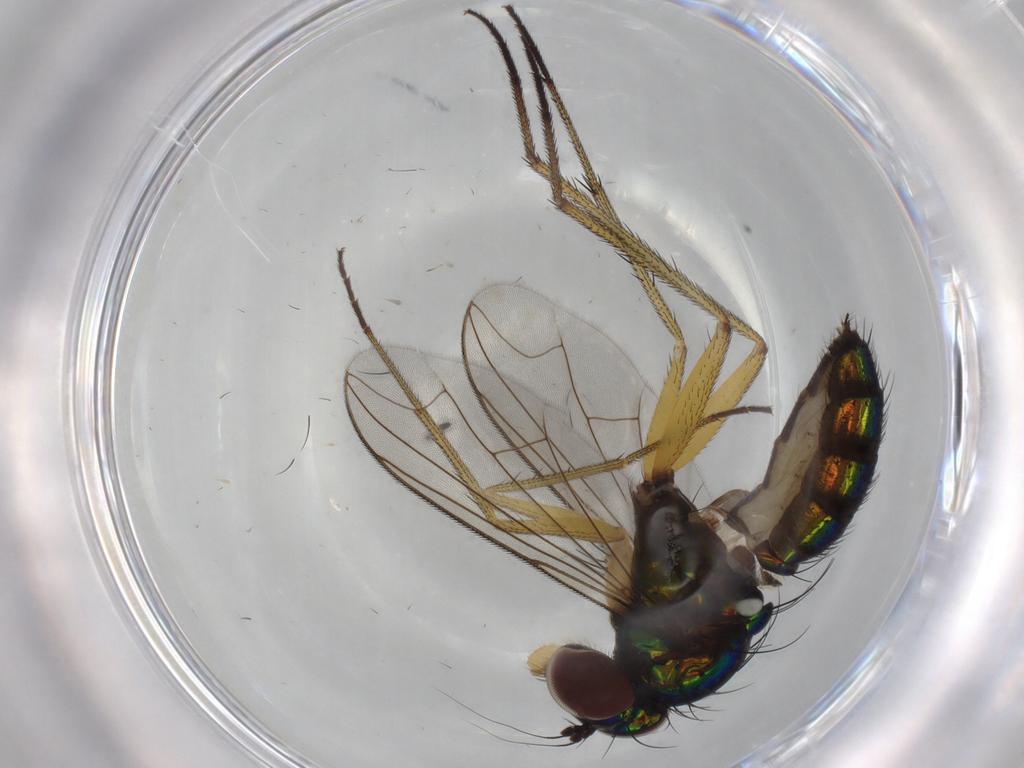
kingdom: Animalia
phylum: Arthropoda
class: Insecta
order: Diptera
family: Dolichopodidae
